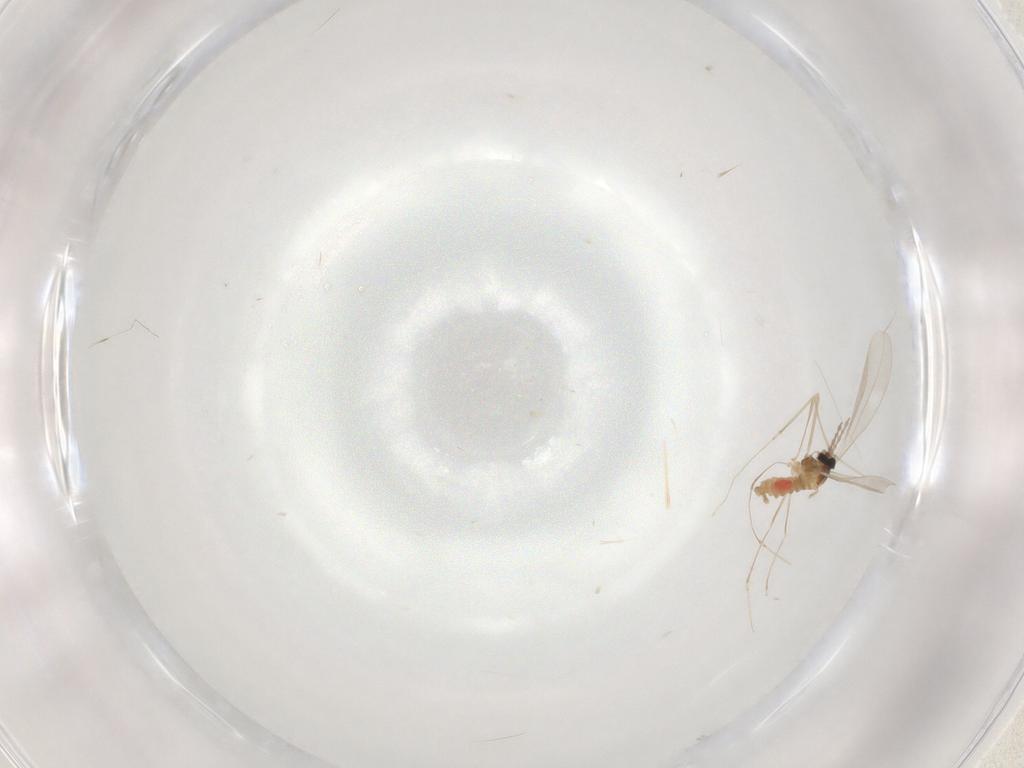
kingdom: Animalia
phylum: Arthropoda
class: Insecta
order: Diptera
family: Cecidomyiidae
